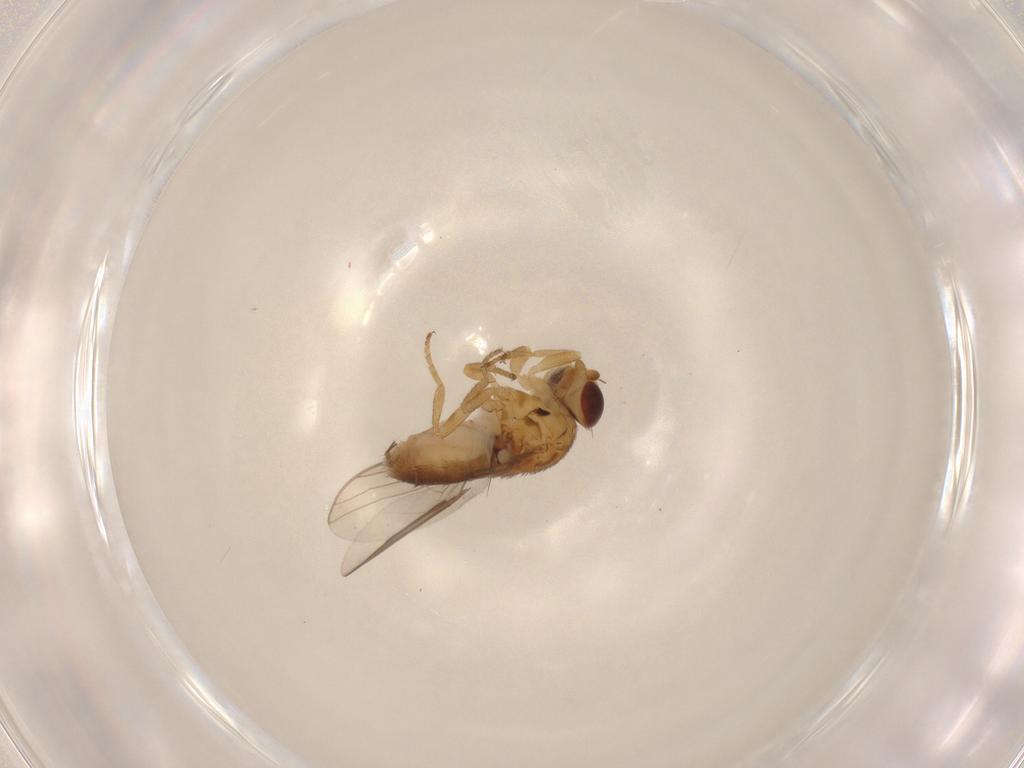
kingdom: Animalia
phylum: Arthropoda
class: Insecta
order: Diptera
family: Chloropidae
